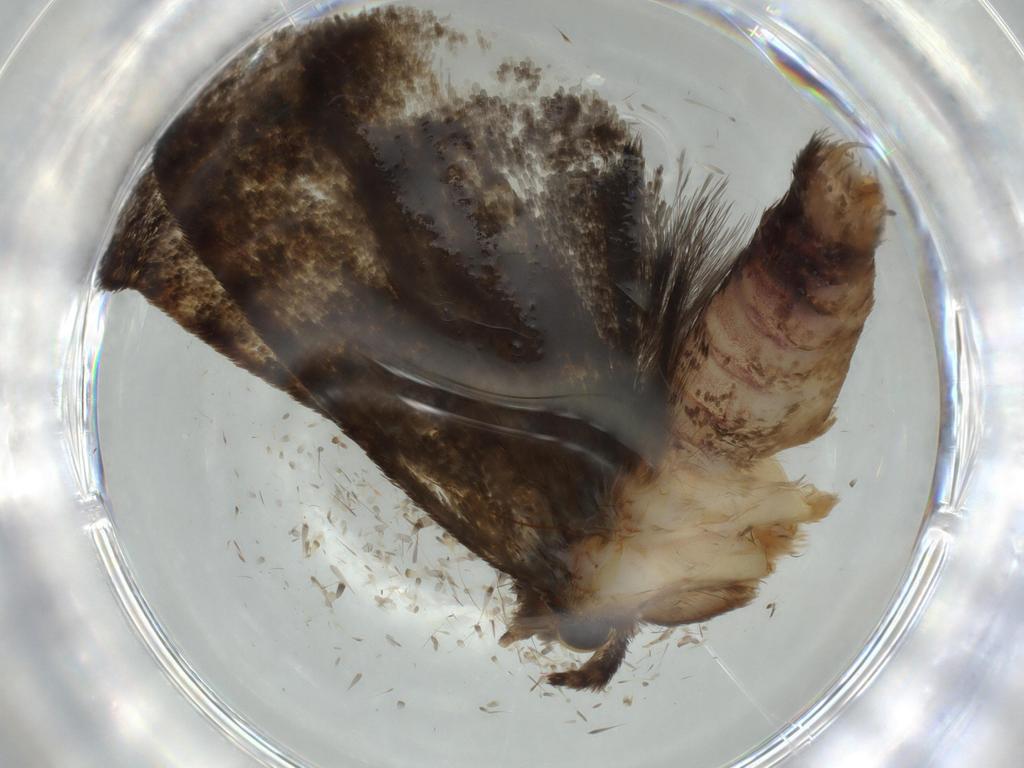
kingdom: Animalia
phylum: Arthropoda
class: Insecta
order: Lepidoptera
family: Tineidae
